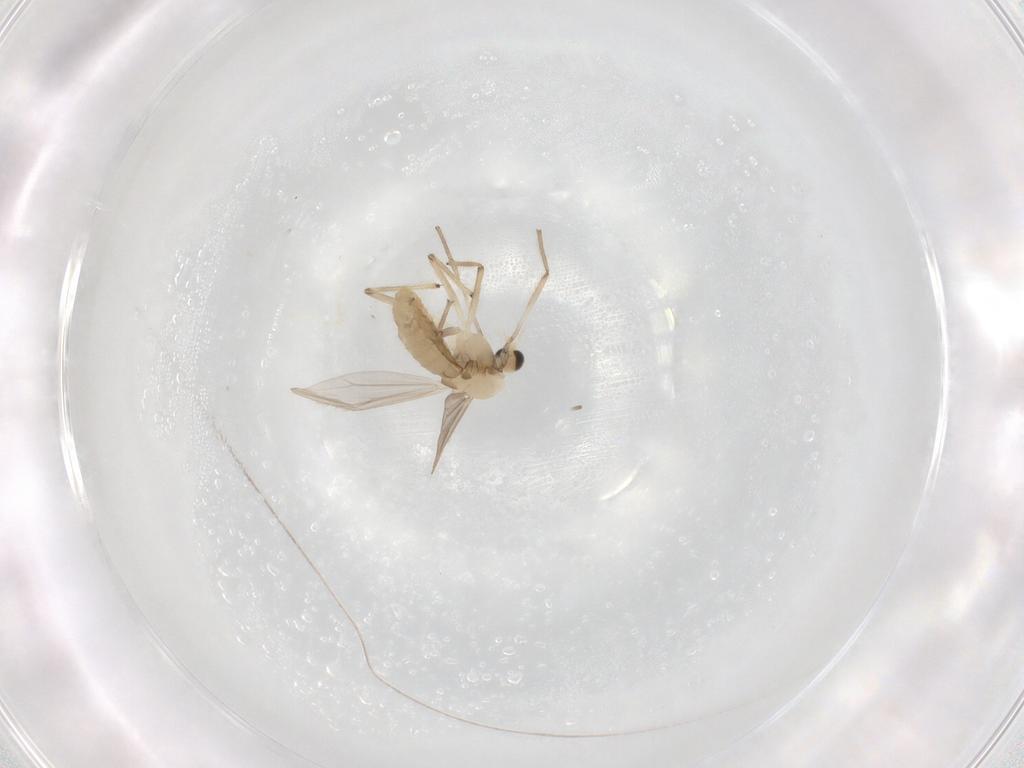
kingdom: Animalia
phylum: Arthropoda
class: Insecta
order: Diptera
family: Chironomidae
